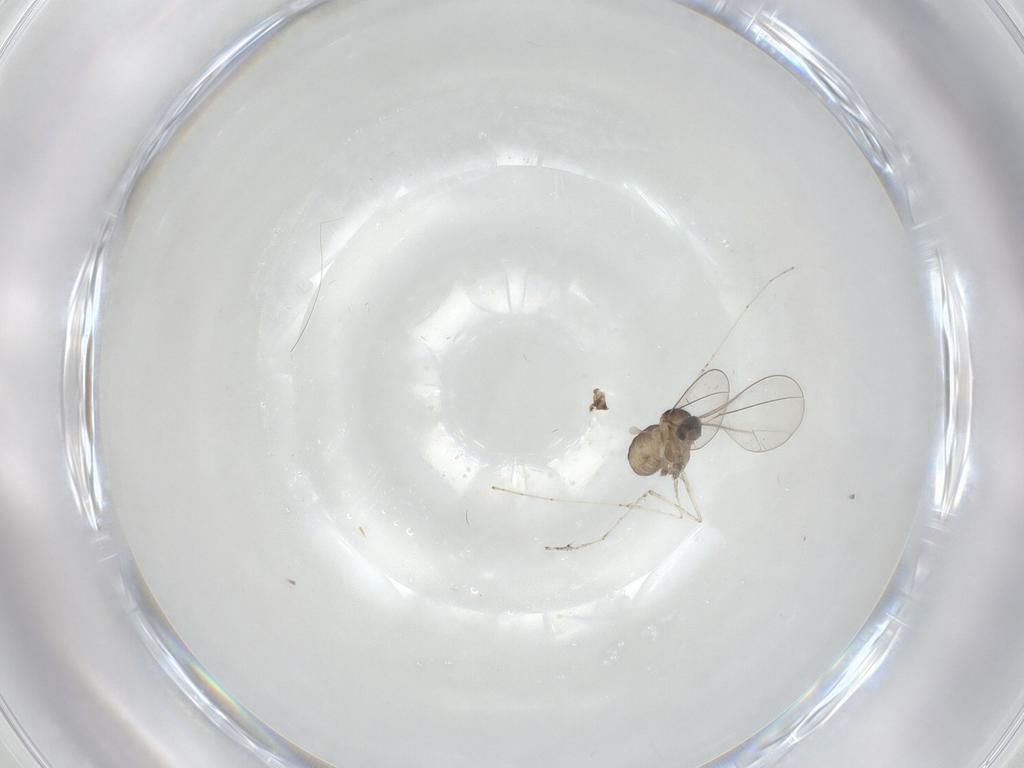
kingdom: Animalia
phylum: Arthropoda
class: Insecta
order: Diptera
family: Cecidomyiidae
